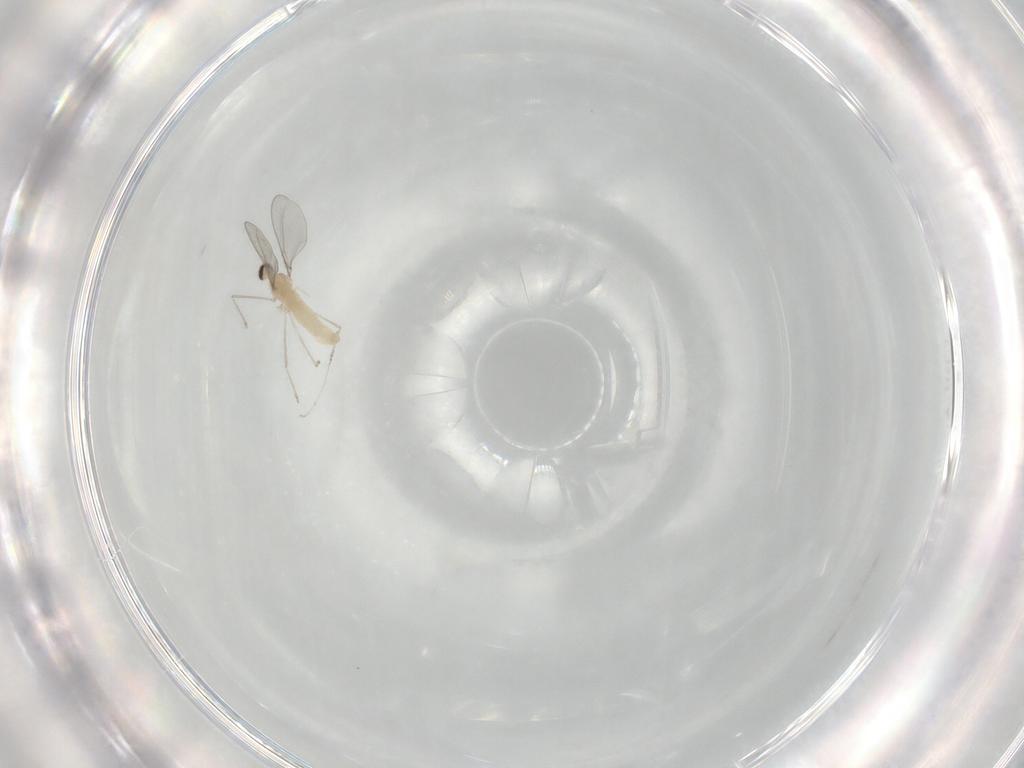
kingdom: Animalia
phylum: Arthropoda
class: Insecta
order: Diptera
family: Cecidomyiidae
